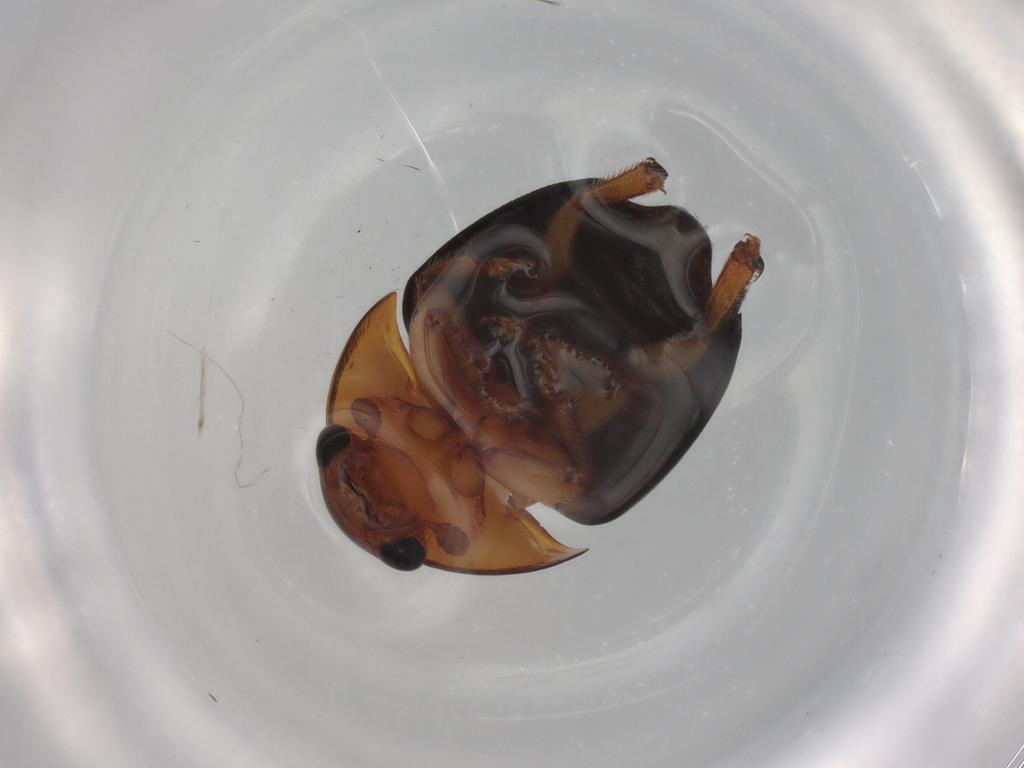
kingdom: Animalia
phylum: Arthropoda
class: Insecta
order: Coleoptera
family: Nitidulidae
